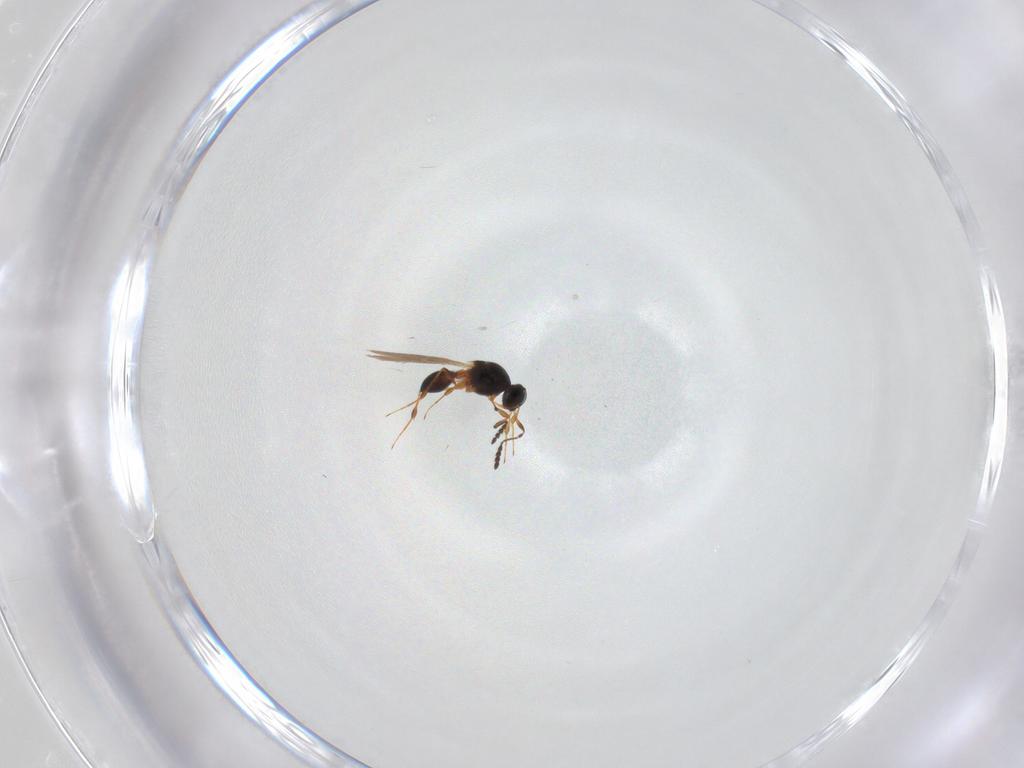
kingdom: Animalia
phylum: Arthropoda
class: Insecta
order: Hymenoptera
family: Platygastridae
